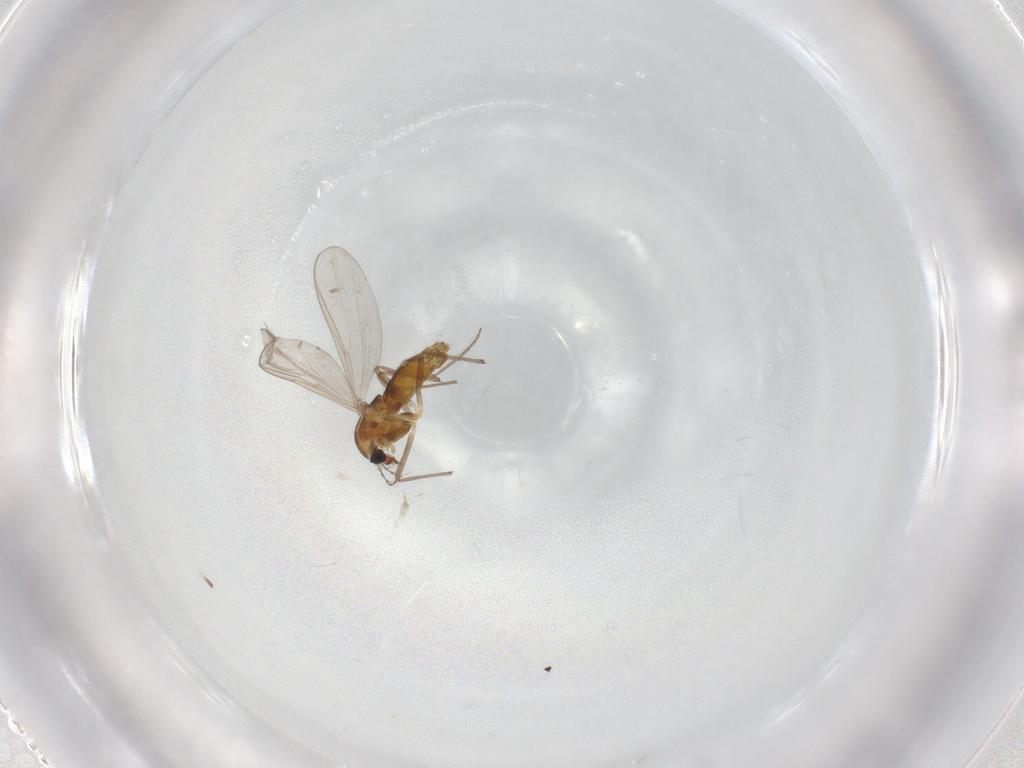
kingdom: Animalia
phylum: Arthropoda
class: Insecta
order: Diptera
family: Chironomidae
